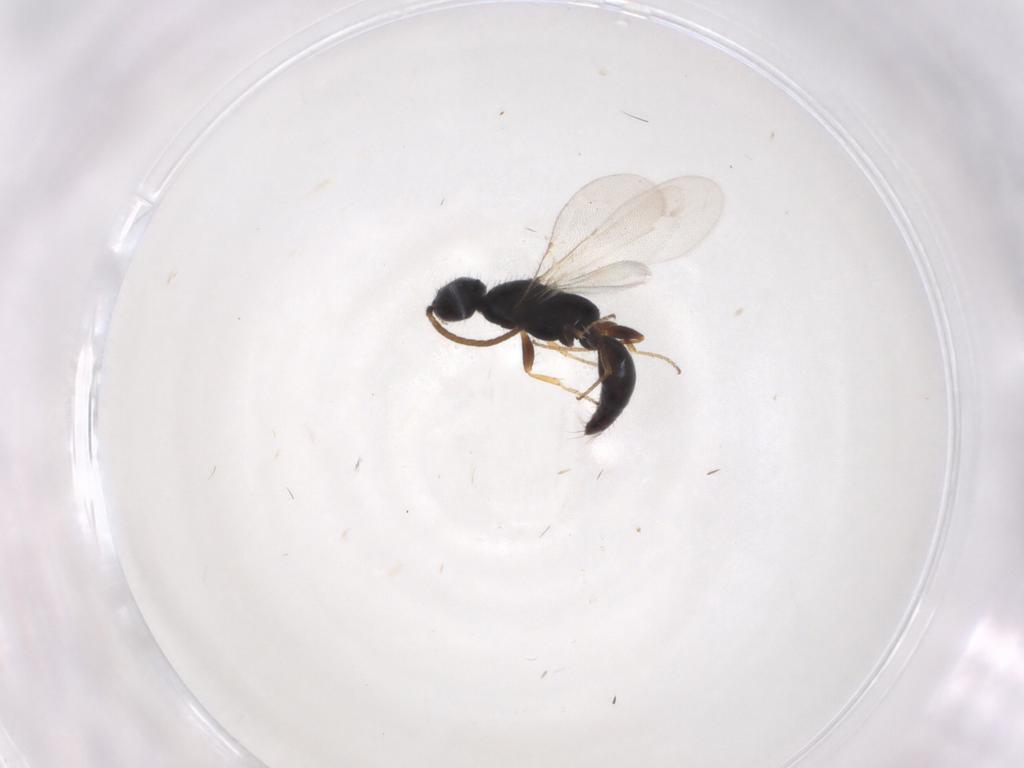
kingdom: Animalia
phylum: Arthropoda
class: Insecta
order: Hymenoptera
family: Bethylidae
